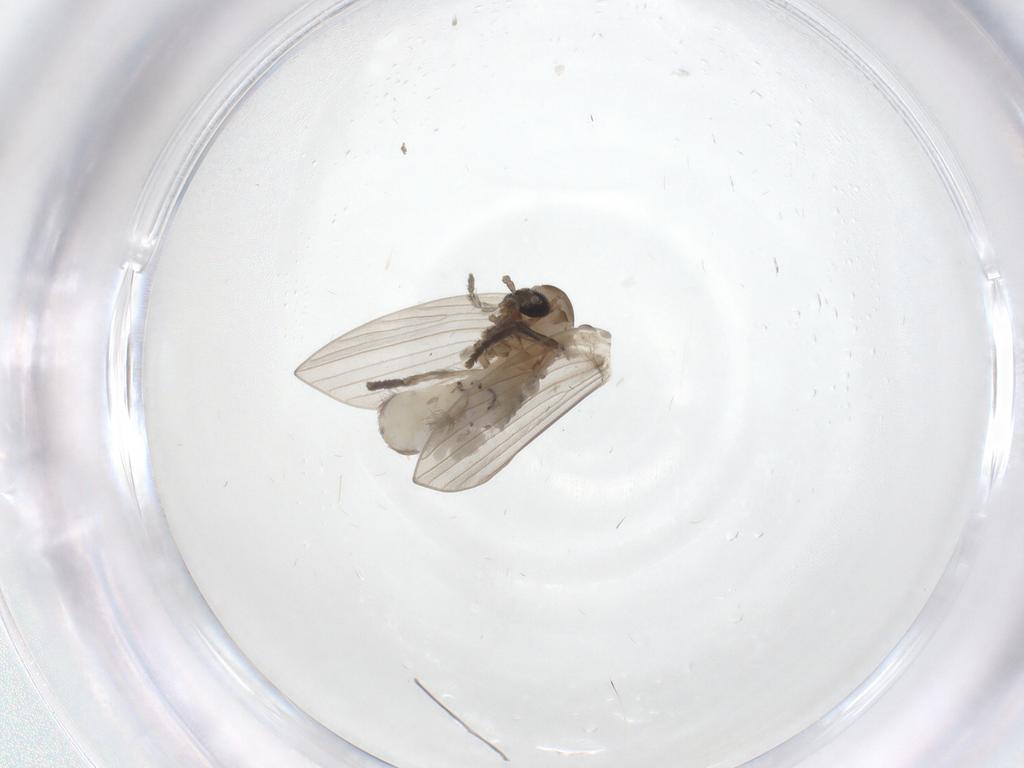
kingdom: Animalia
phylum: Arthropoda
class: Insecta
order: Diptera
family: Psychodidae
